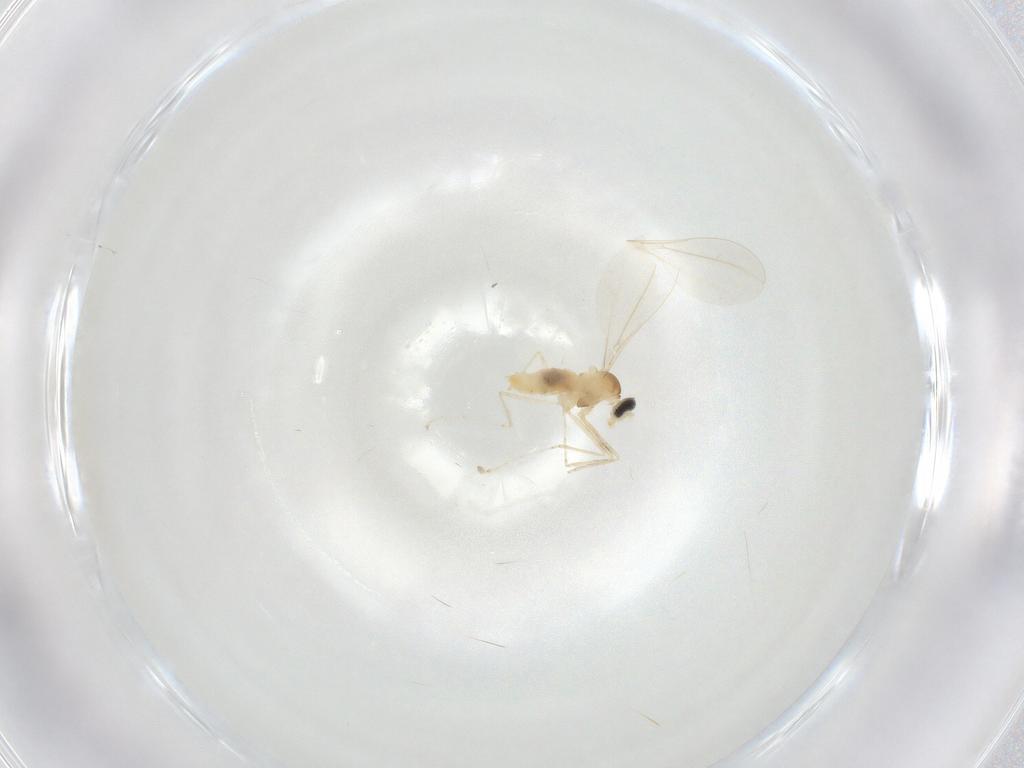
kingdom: Animalia
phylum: Arthropoda
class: Insecta
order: Diptera
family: Cecidomyiidae
